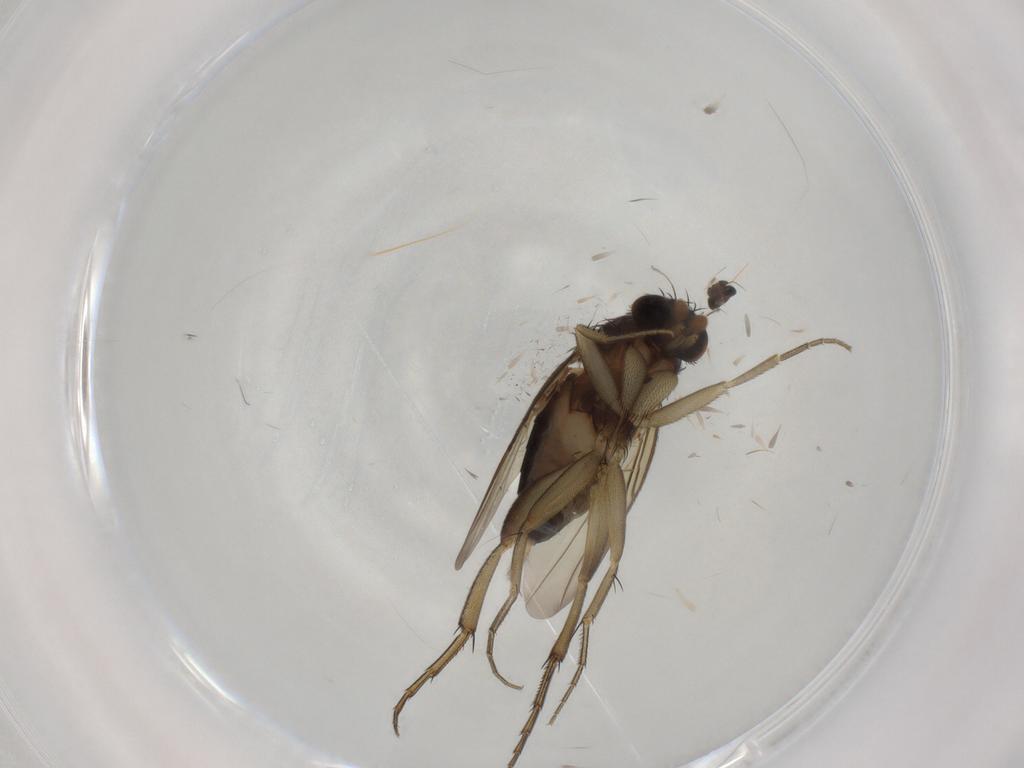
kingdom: Animalia
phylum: Arthropoda
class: Insecta
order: Diptera
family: Phoridae
